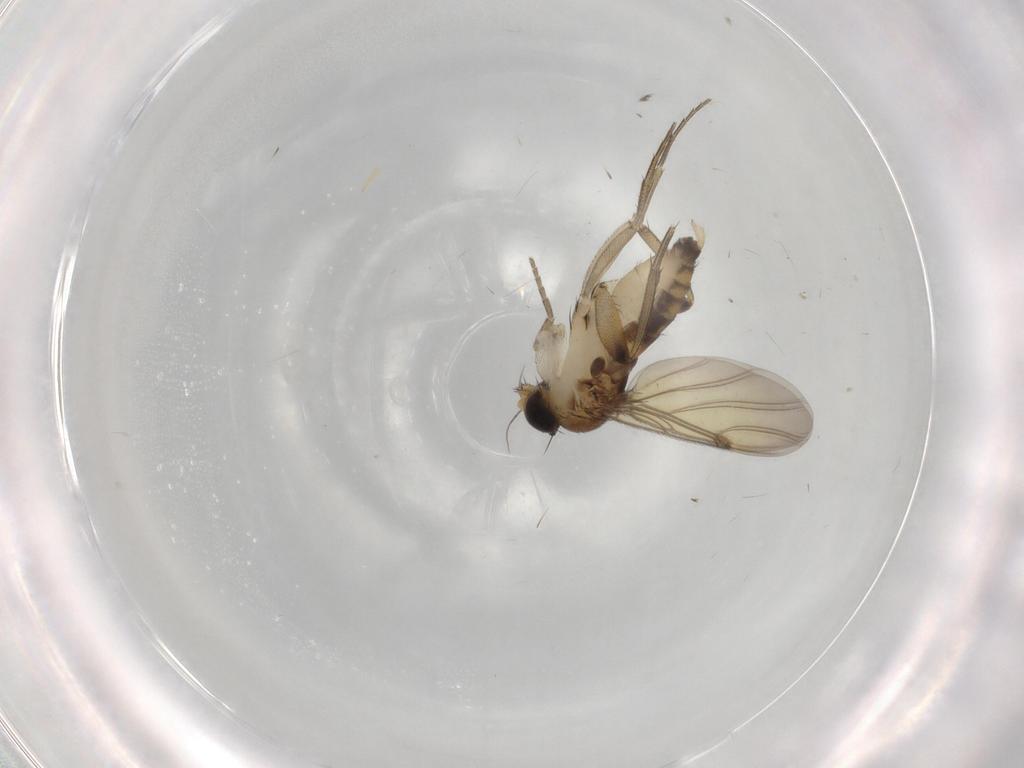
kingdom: Animalia
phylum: Arthropoda
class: Insecta
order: Diptera
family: Phoridae
